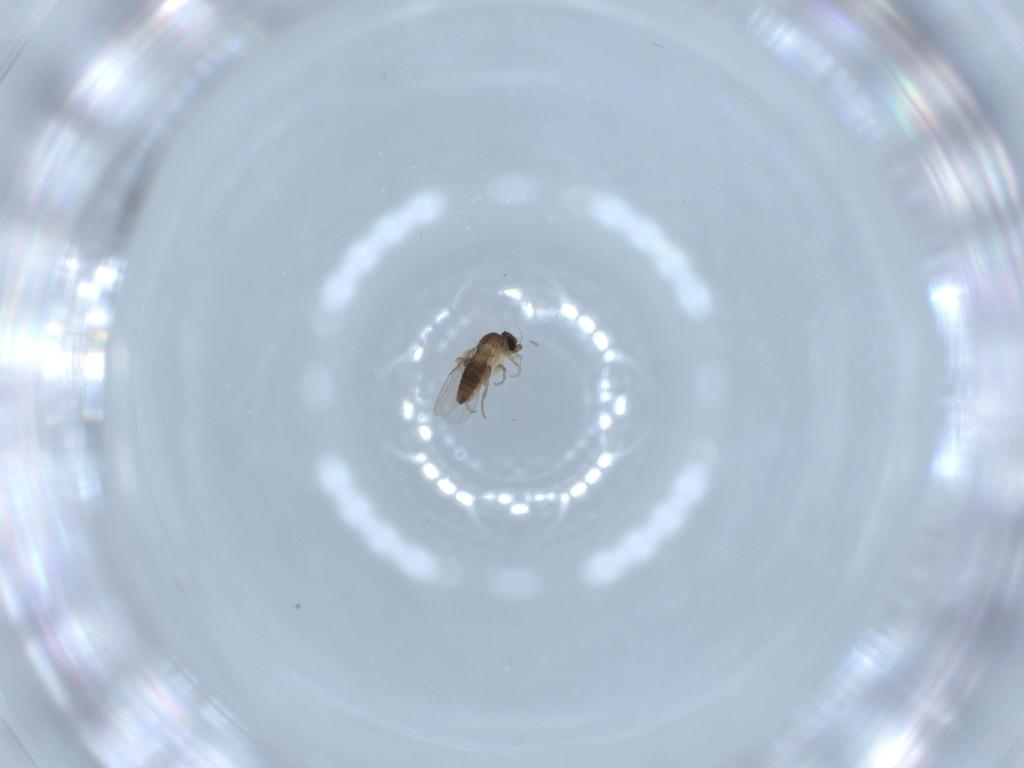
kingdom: Animalia
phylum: Arthropoda
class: Insecta
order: Diptera
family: Phoridae
